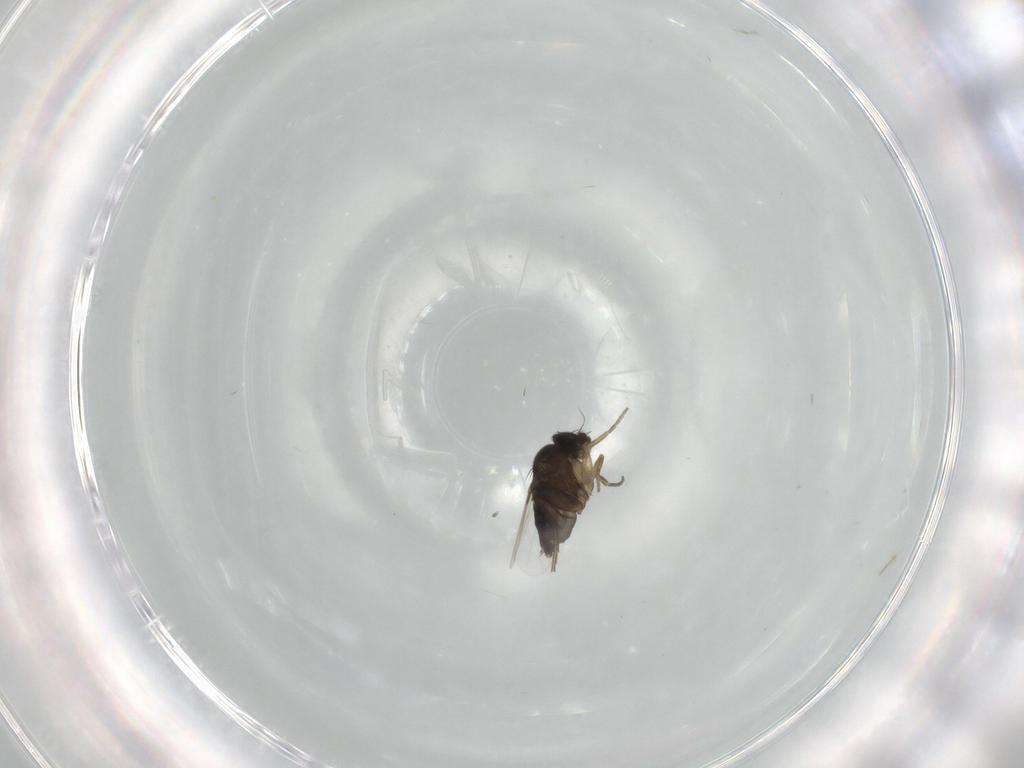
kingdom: Animalia
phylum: Arthropoda
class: Insecta
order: Diptera
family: Phoridae
